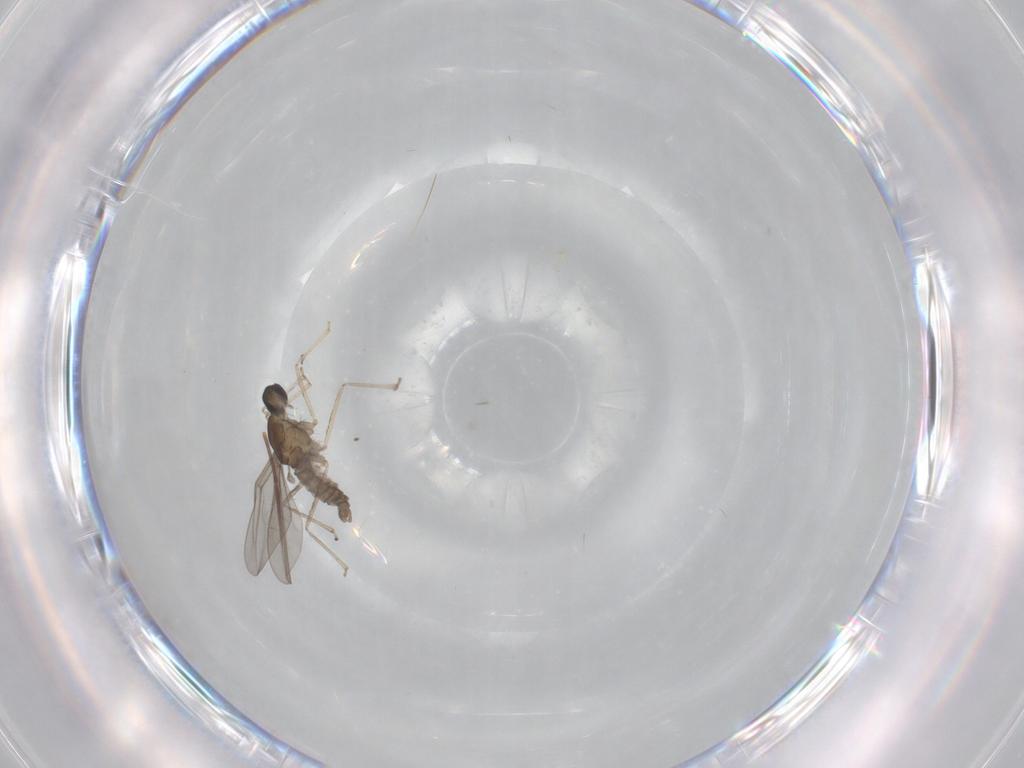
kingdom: Animalia
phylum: Arthropoda
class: Insecta
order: Diptera
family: Cecidomyiidae
